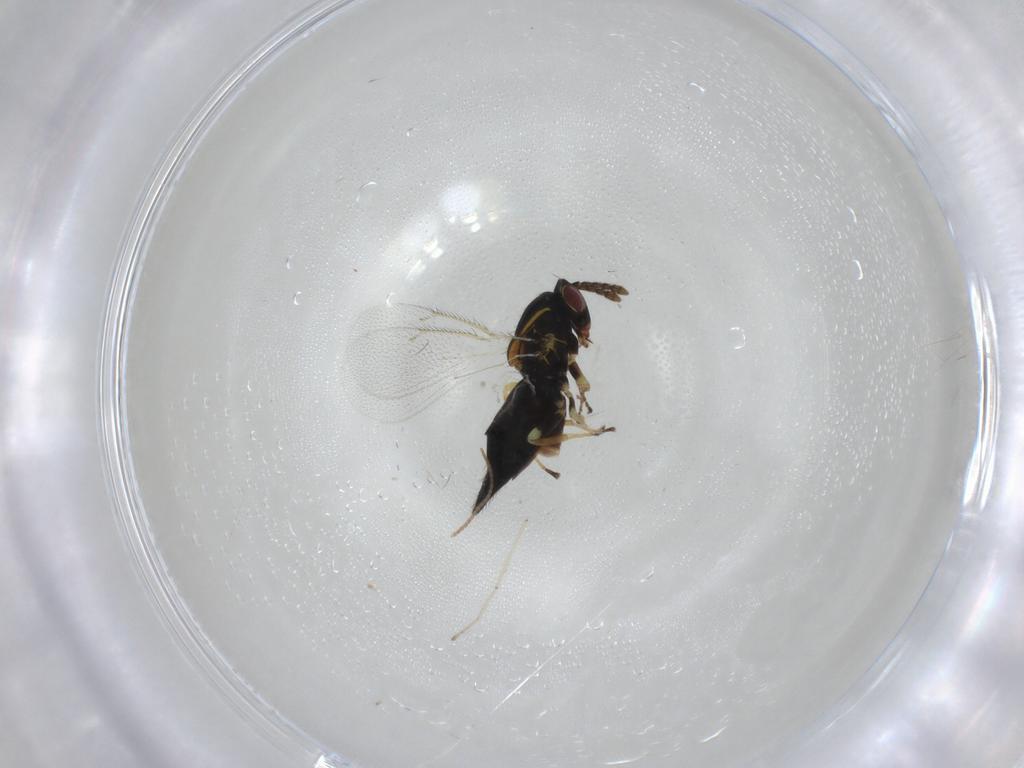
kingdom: Animalia
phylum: Arthropoda
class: Insecta
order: Hymenoptera
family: Eulophidae
